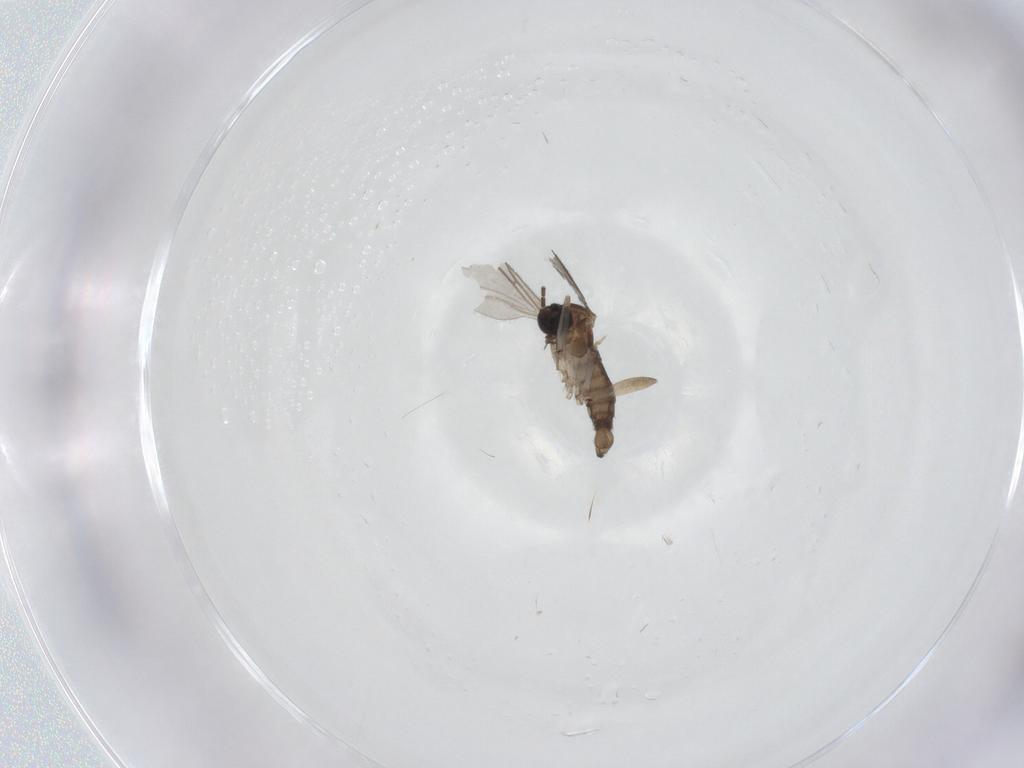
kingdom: Animalia
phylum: Arthropoda
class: Insecta
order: Diptera
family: Sciaridae
